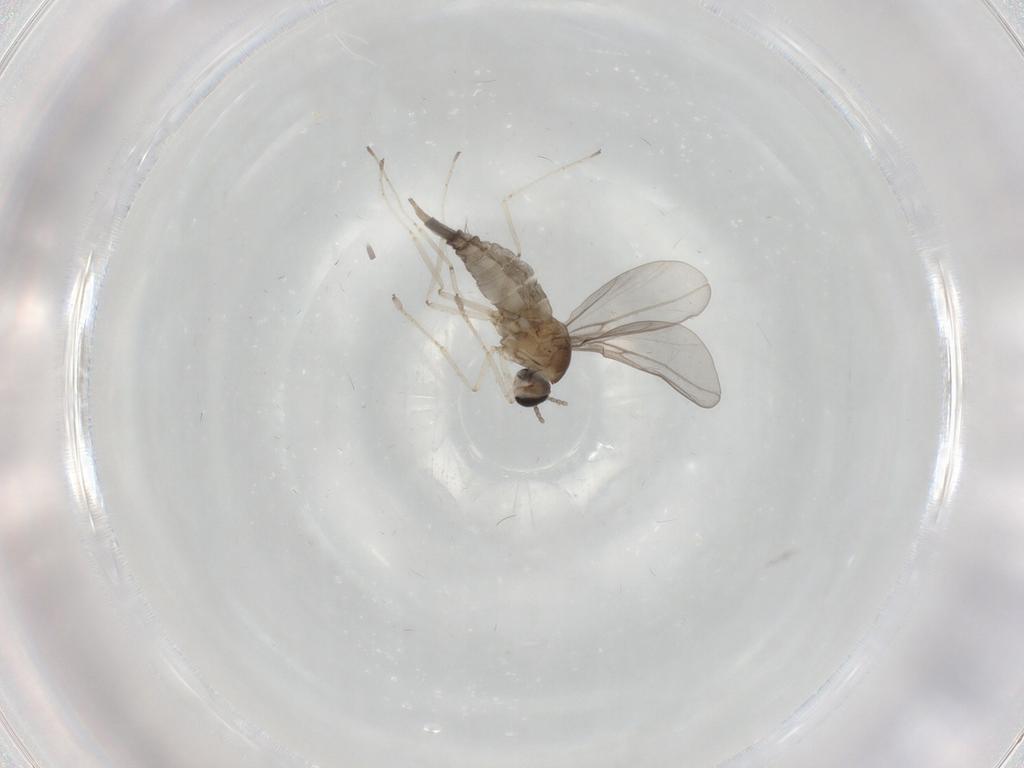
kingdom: Animalia
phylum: Arthropoda
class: Insecta
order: Diptera
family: Cecidomyiidae
